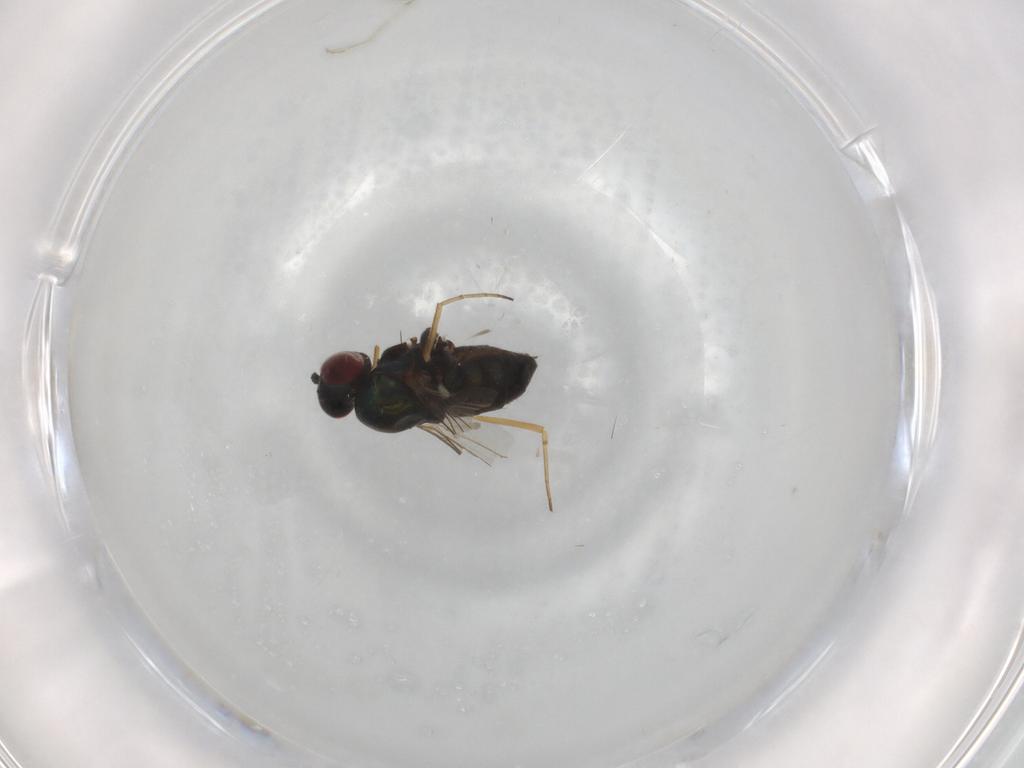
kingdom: Animalia
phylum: Arthropoda
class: Insecta
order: Diptera
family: Dolichopodidae
